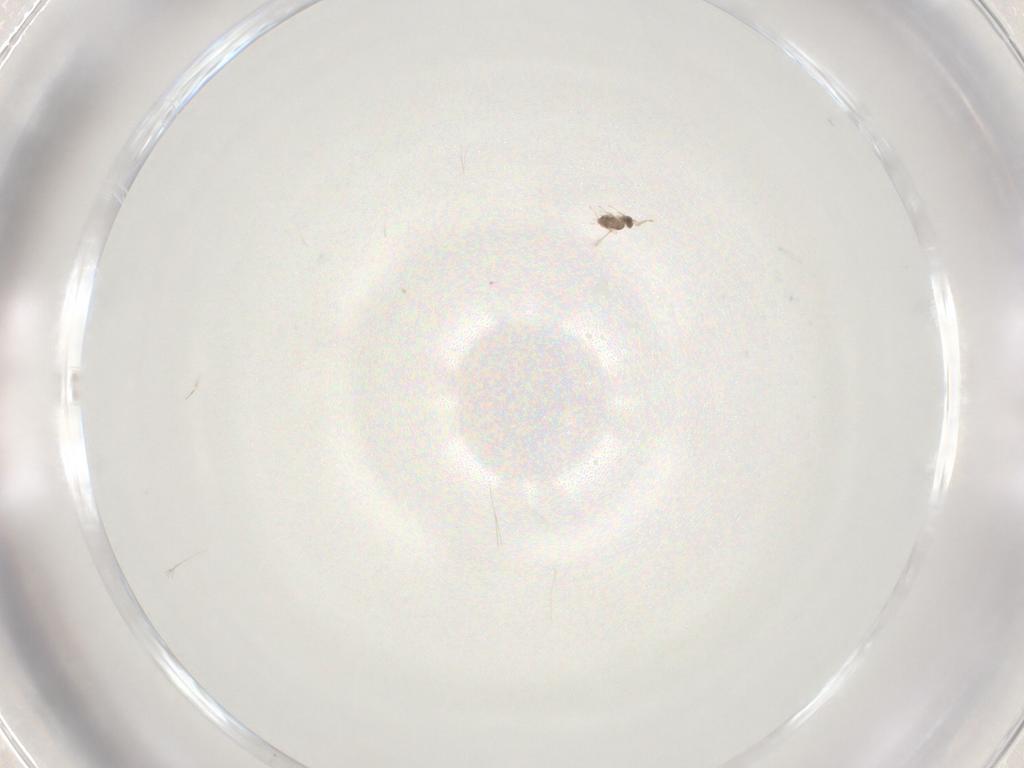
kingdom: Animalia
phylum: Arthropoda
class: Insecta
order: Hymenoptera
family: Mymaridae
